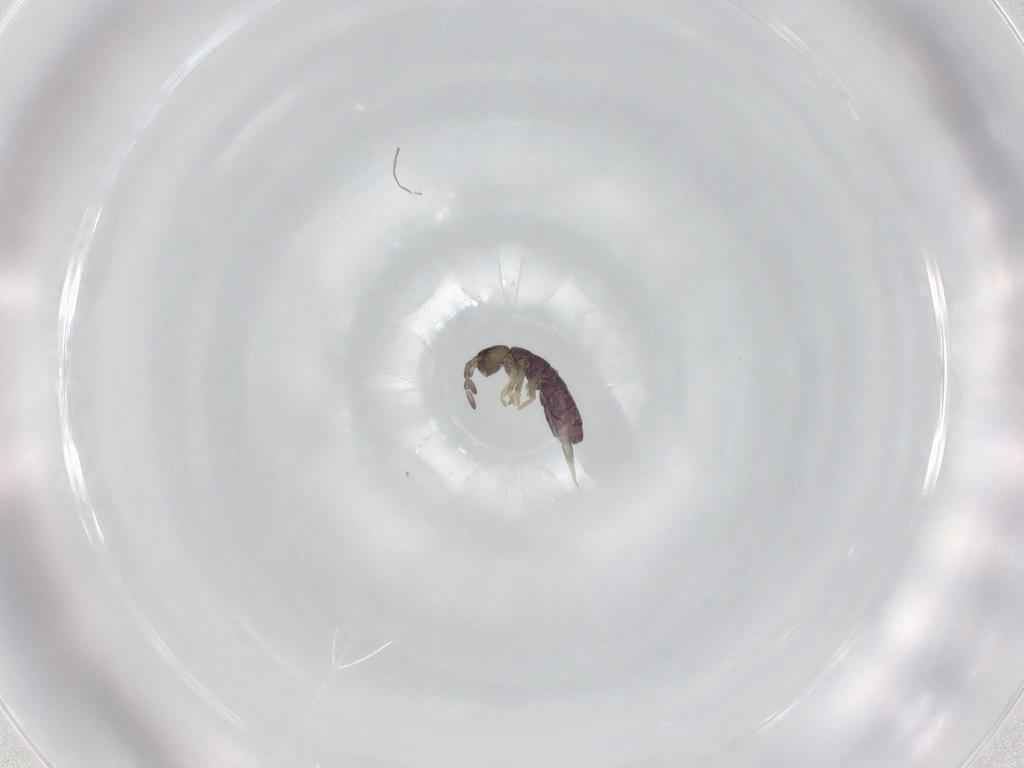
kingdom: Animalia
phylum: Arthropoda
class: Collembola
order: Entomobryomorpha
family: Isotomidae
